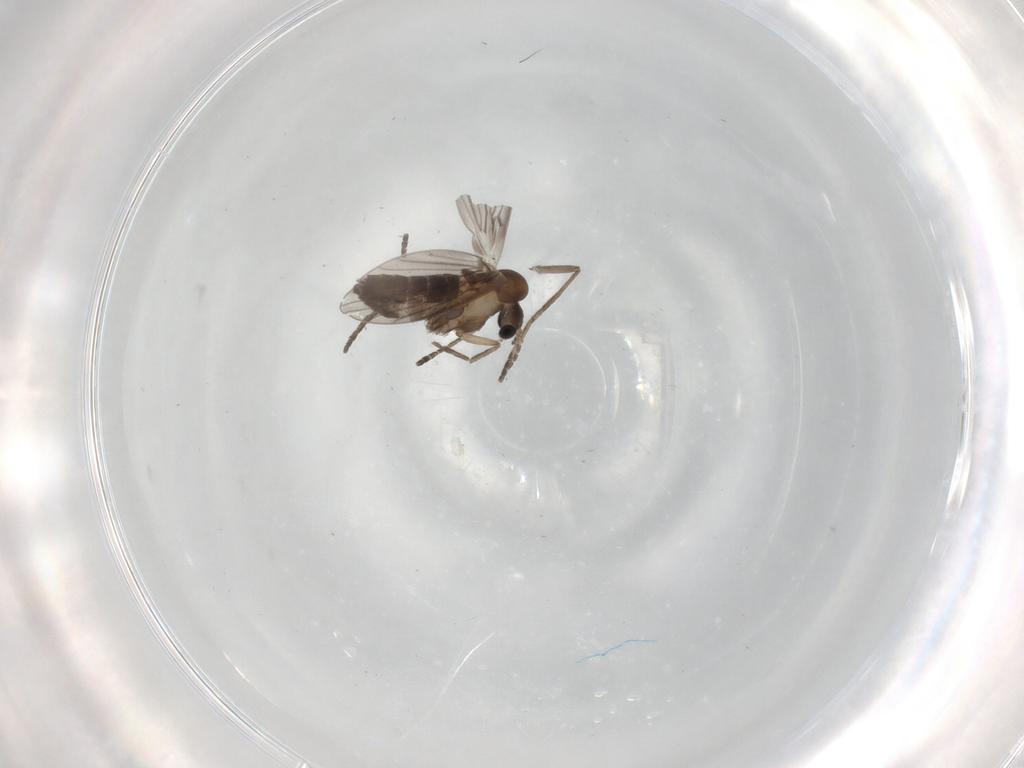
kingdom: Animalia
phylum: Arthropoda
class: Insecta
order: Diptera
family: Psychodidae
